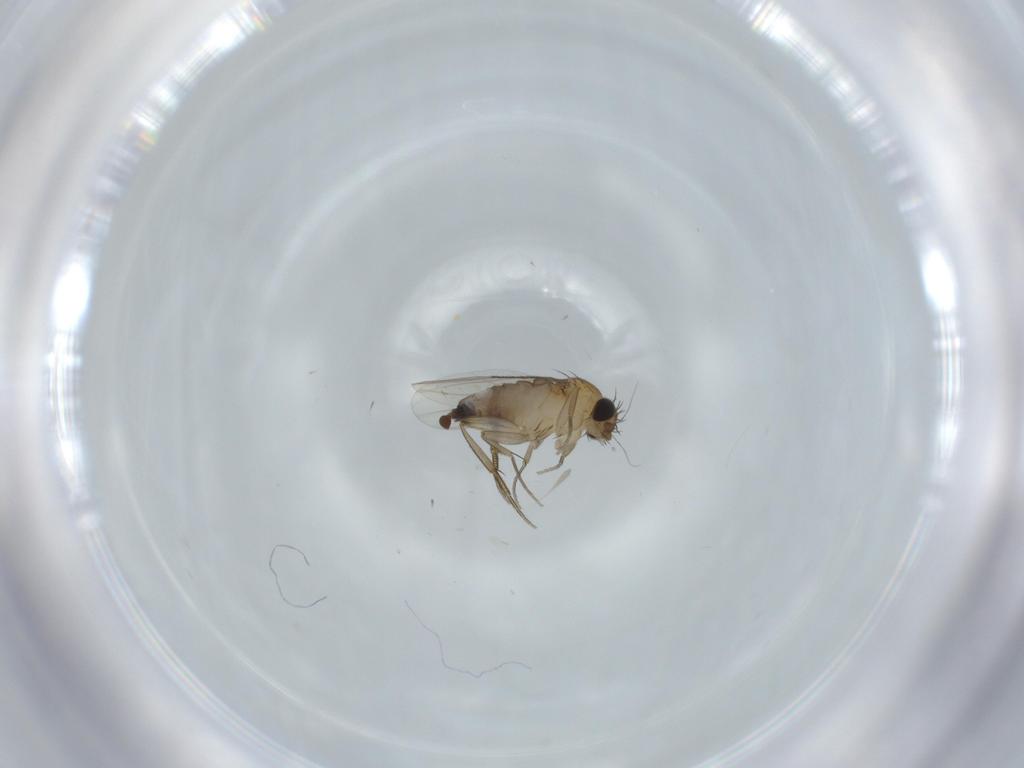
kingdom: Animalia
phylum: Arthropoda
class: Insecta
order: Diptera
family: Phoridae
